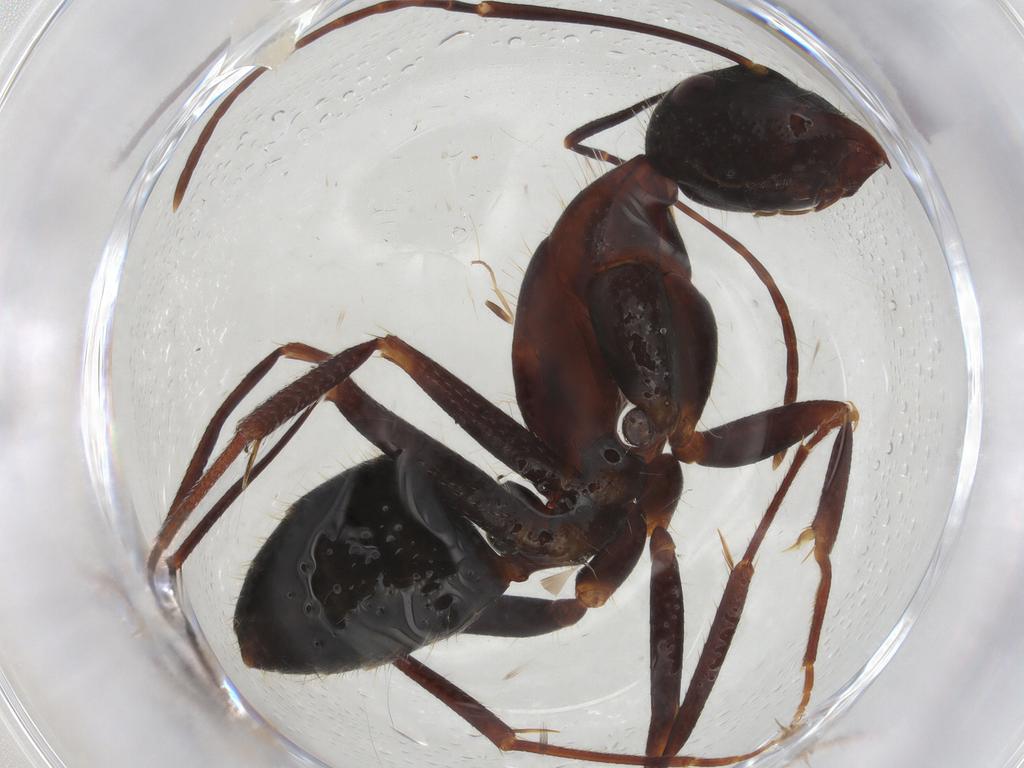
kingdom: Animalia
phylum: Arthropoda
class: Insecta
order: Hymenoptera
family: Formicidae
